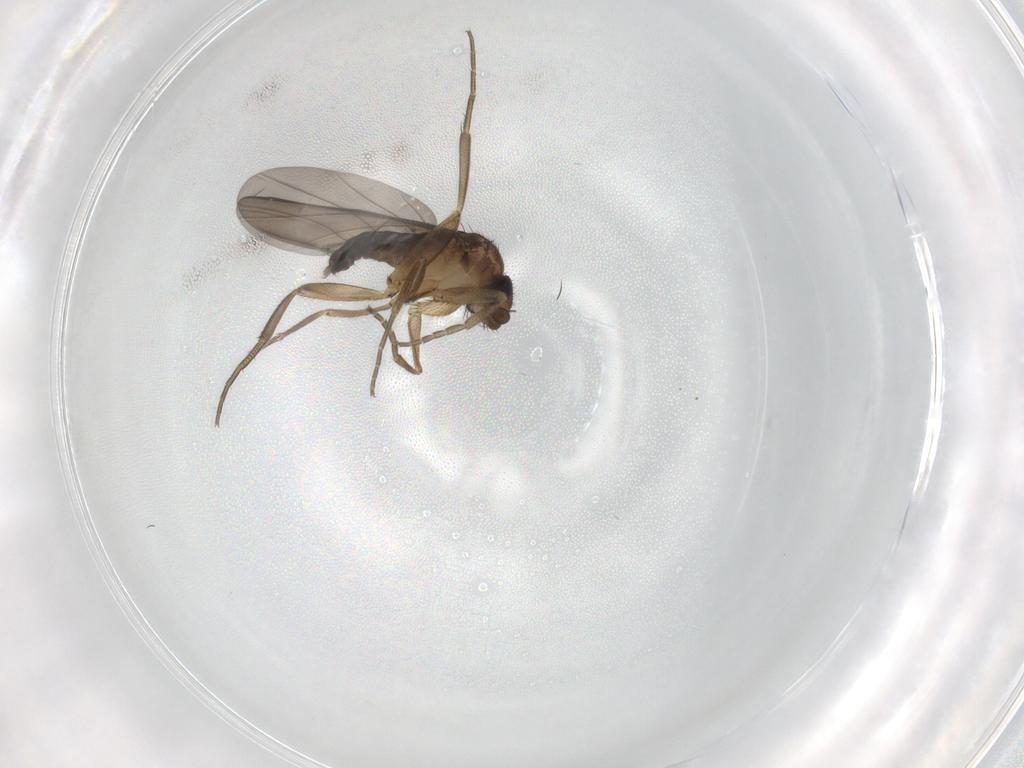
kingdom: Animalia
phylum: Arthropoda
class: Insecta
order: Diptera
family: Phoridae
